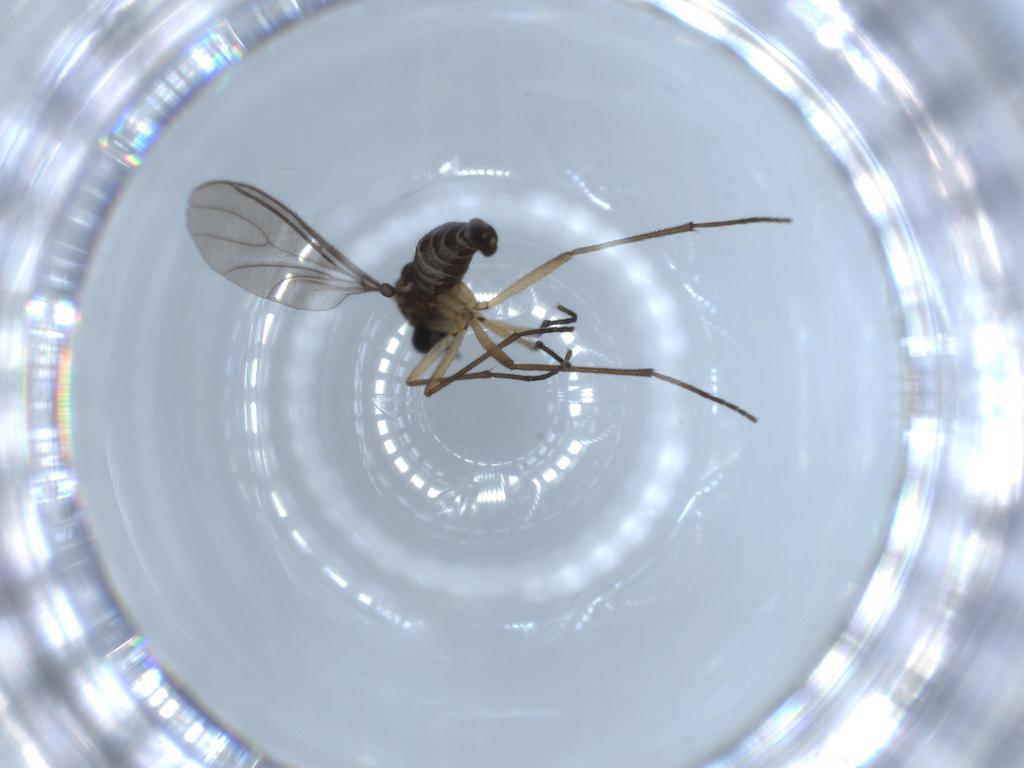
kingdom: Animalia
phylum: Arthropoda
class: Insecta
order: Diptera
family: Sciaridae
